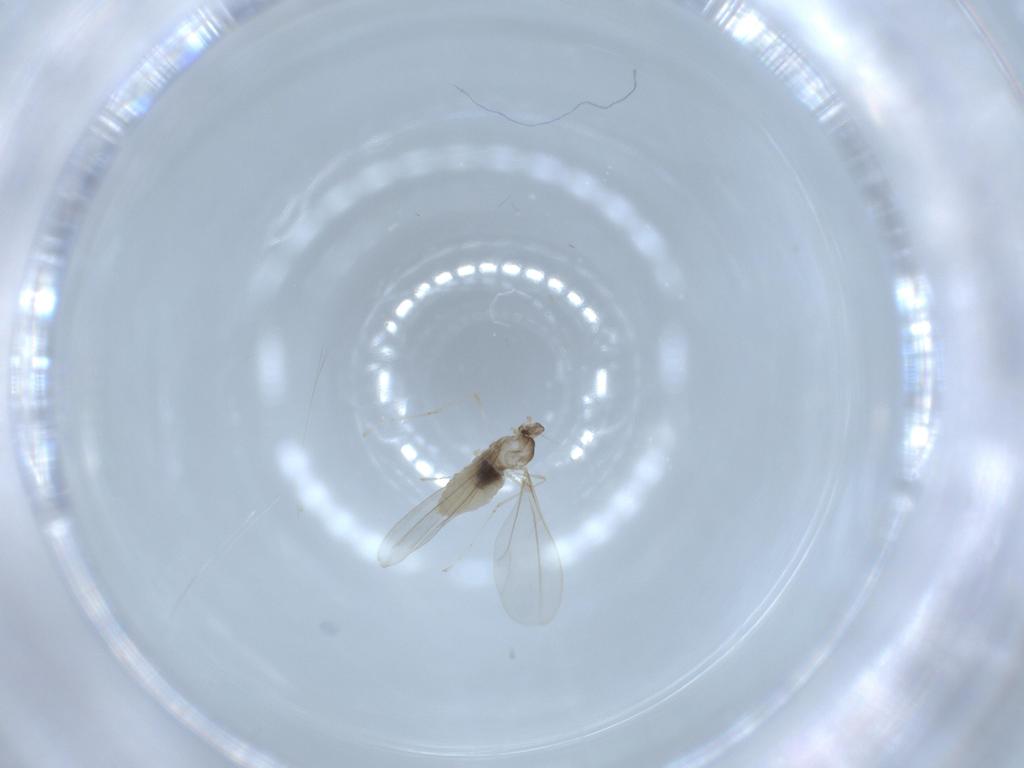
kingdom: Animalia
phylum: Arthropoda
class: Insecta
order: Diptera
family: Cecidomyiidae
